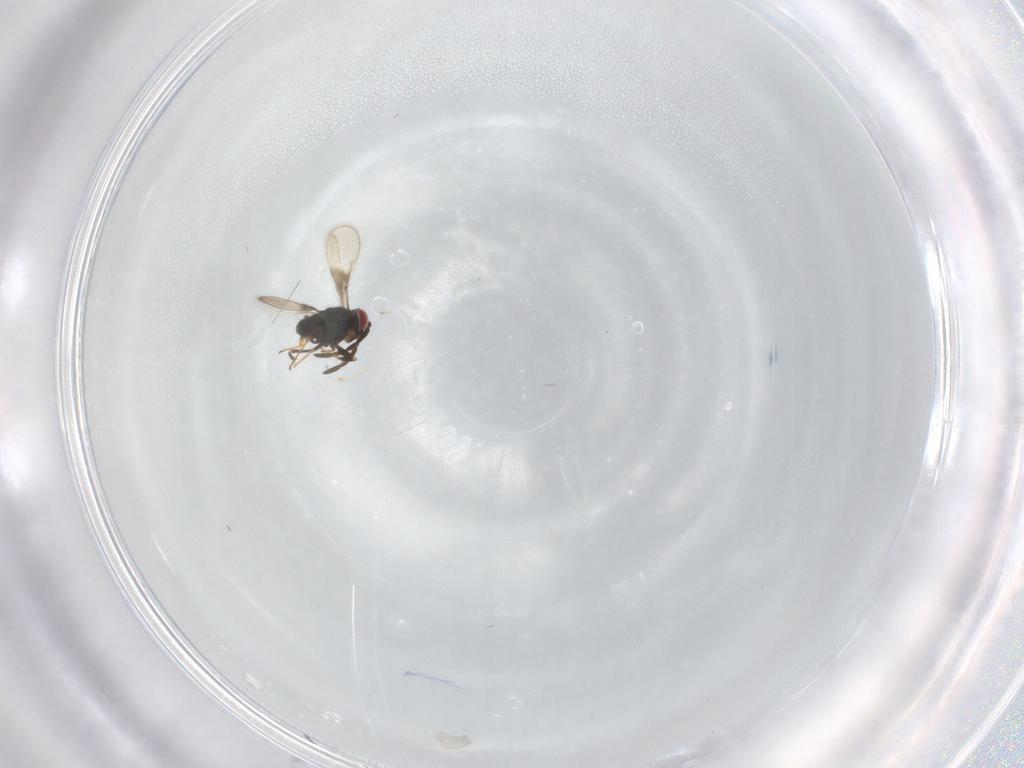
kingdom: Animalia
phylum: Arthropoda
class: Insecta
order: Hymenoptera
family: Azotidae
